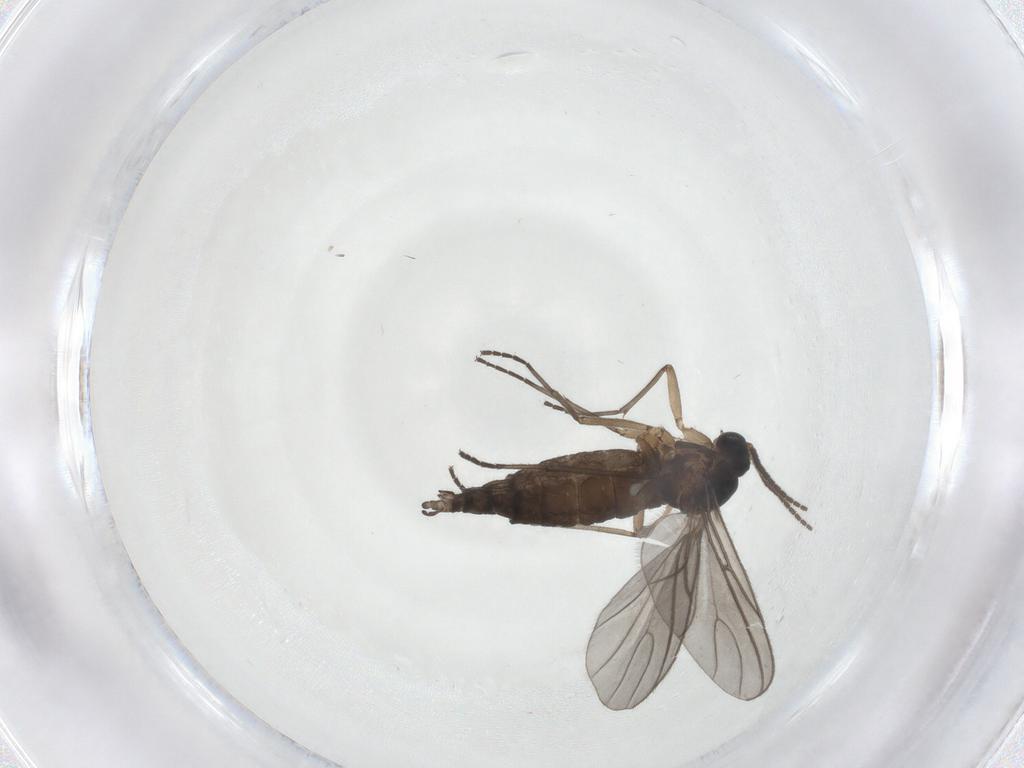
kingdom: Animalia
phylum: Arthropoda
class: Insecta
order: Diptera
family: Sciaridae
